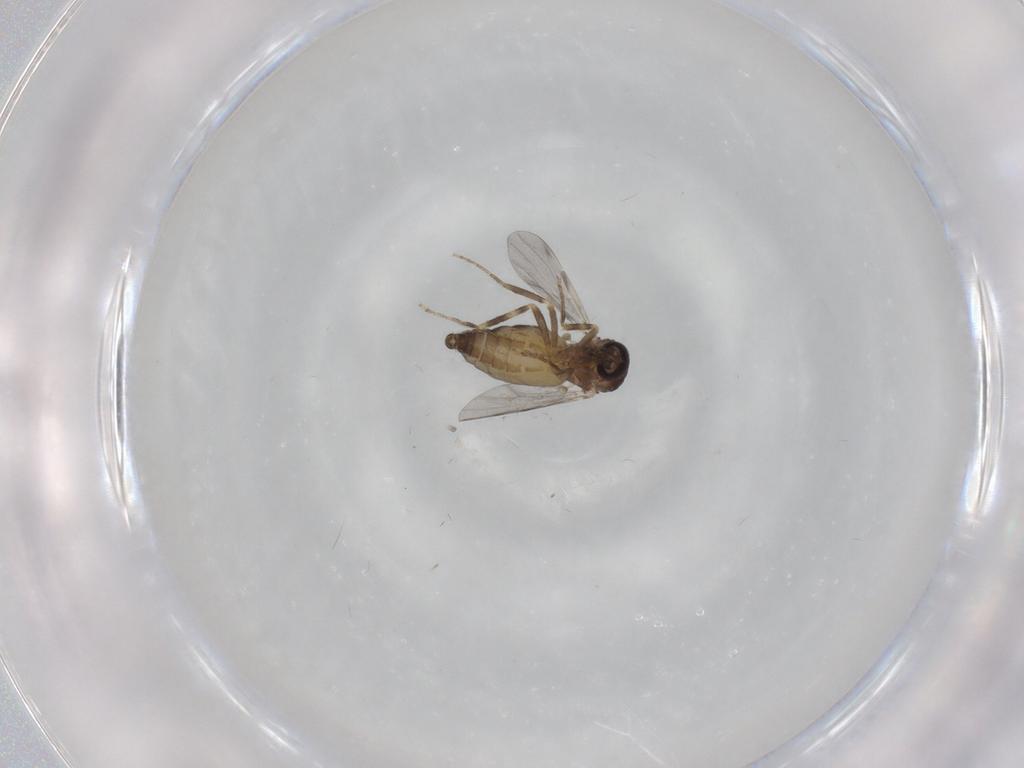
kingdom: Animalia
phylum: Arthropoda
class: Insecta
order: Diptera
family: Ceratopogonidae
